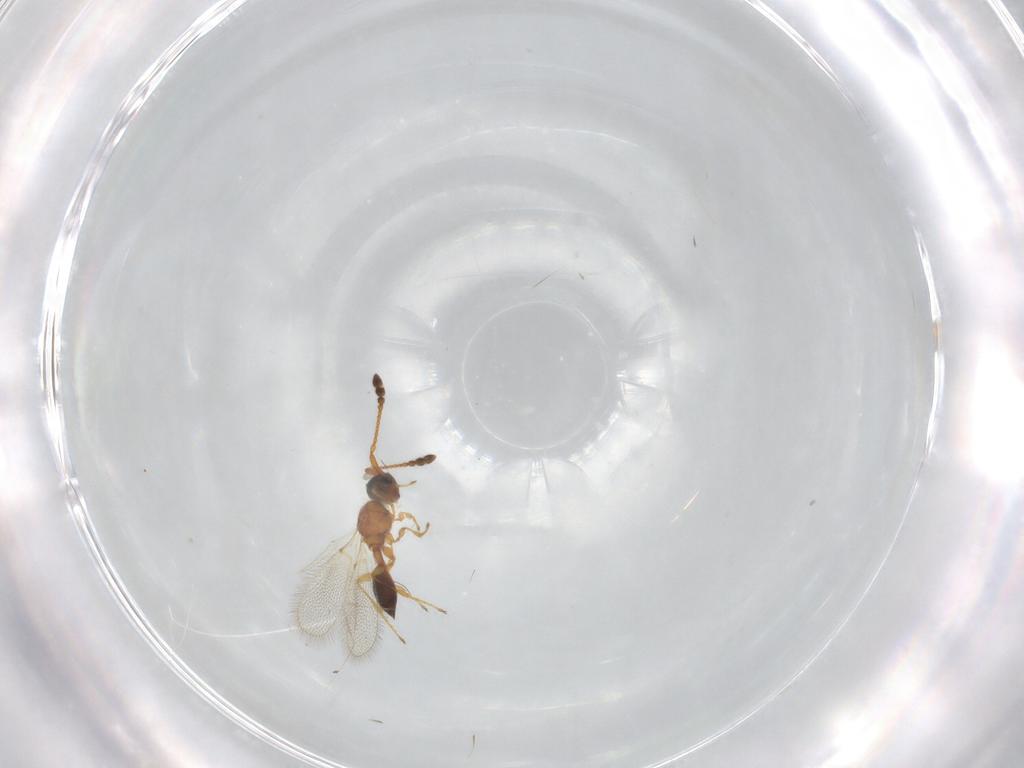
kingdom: Animalia
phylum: Arthropoda
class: Insecta
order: Hymenoptera
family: Diapriidae
